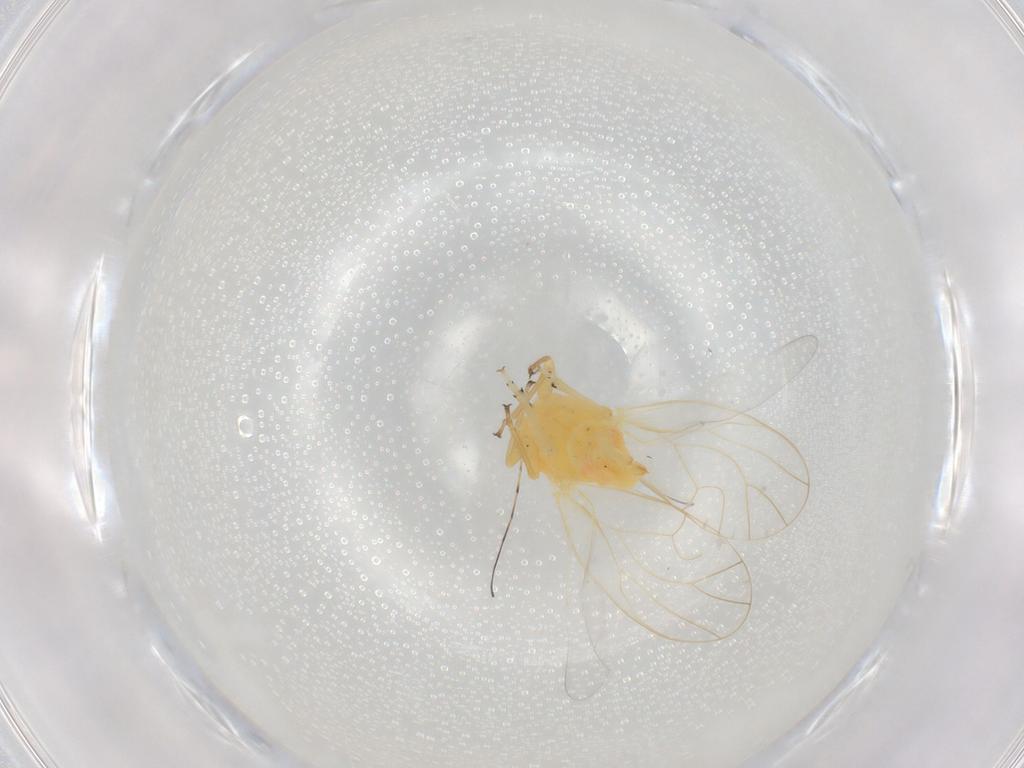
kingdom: Animalia
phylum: Arthropoda
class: Insecta
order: Hemiptera
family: Psyllidae
